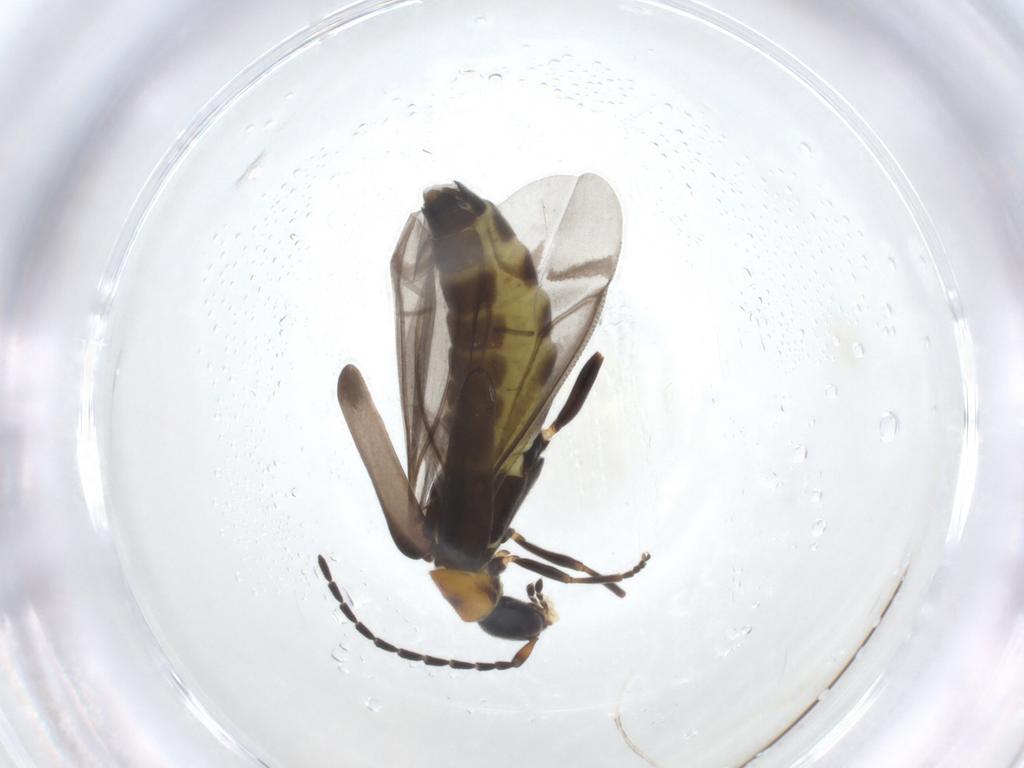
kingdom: Animalia
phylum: Arthropoda
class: Insecta
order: Coleoptera
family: Cantharidae
